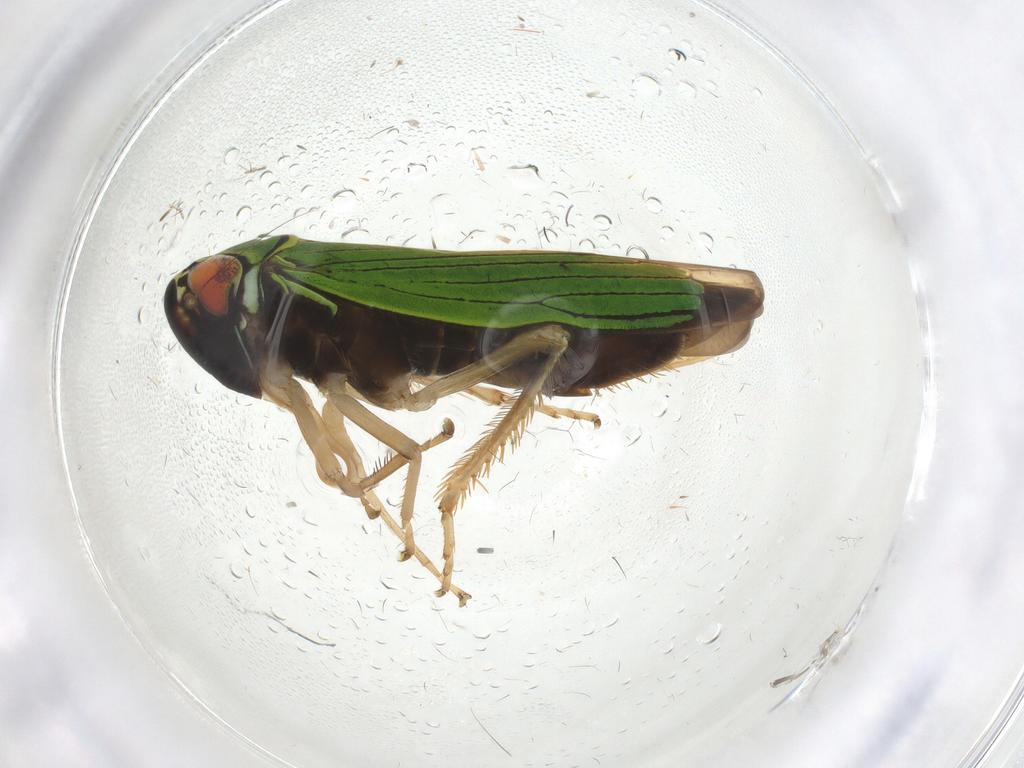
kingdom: Animalia
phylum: Arthropoda
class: Insecta
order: Hemiptera
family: Cicadellidae
